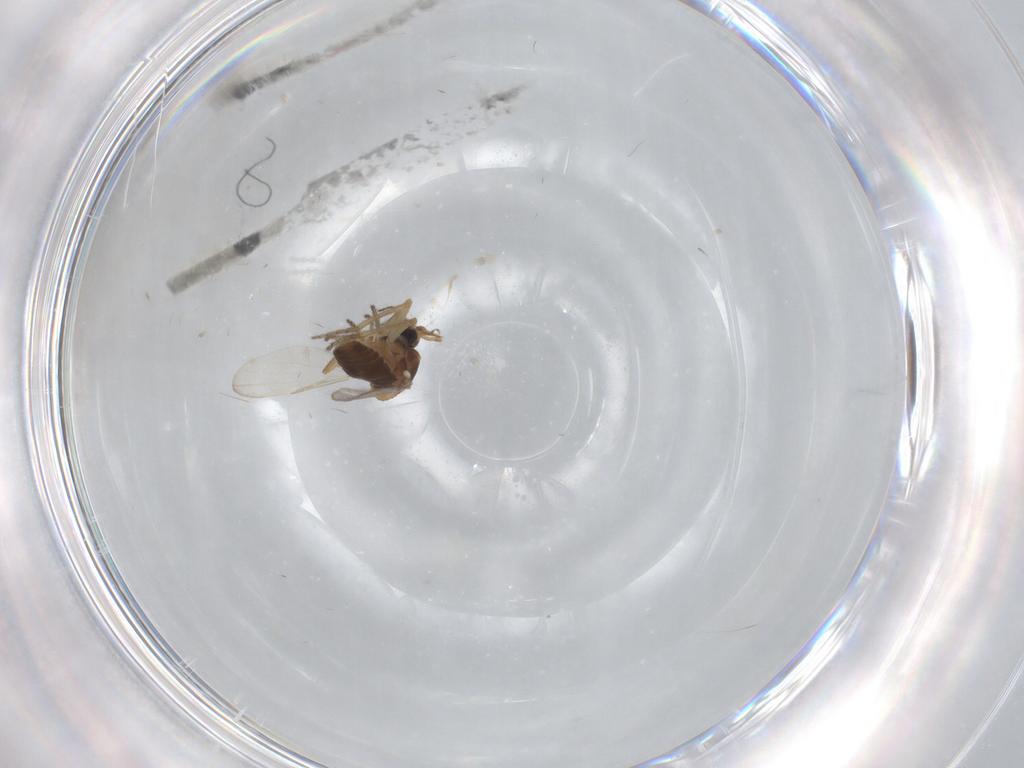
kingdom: Animalia
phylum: Arthropoda
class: Insecta
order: Diptera
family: Ceratopogonidae
